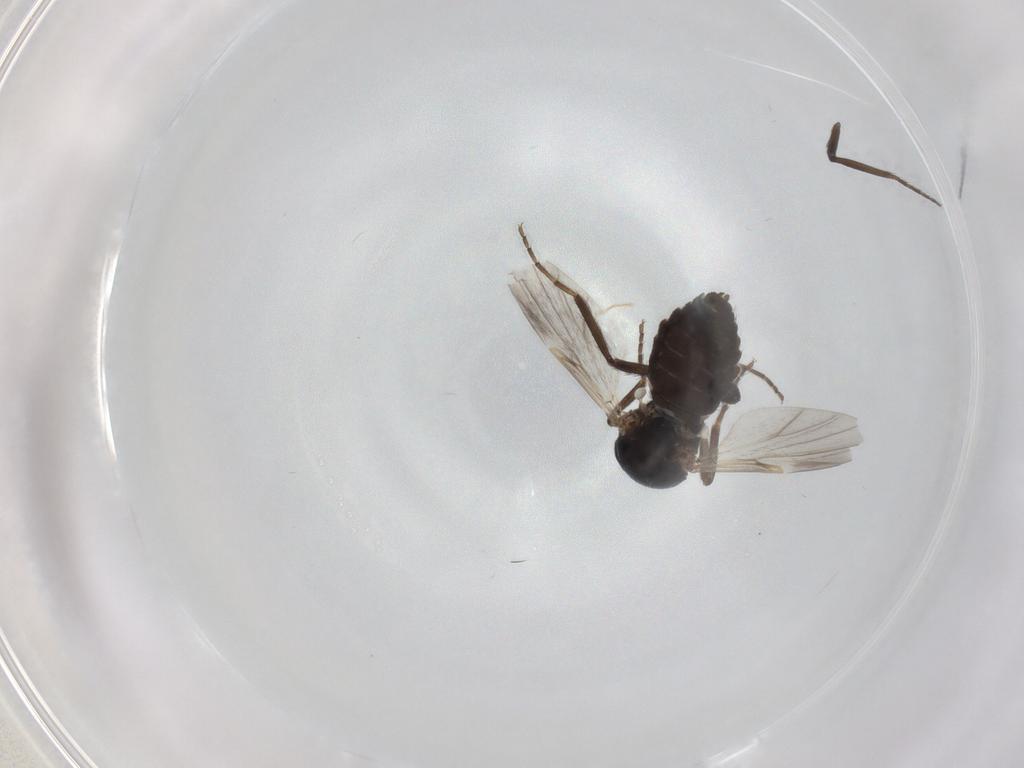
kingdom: Animalia
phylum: Arthropoda
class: Insecta
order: Diptera
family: Ceratopogonidae
